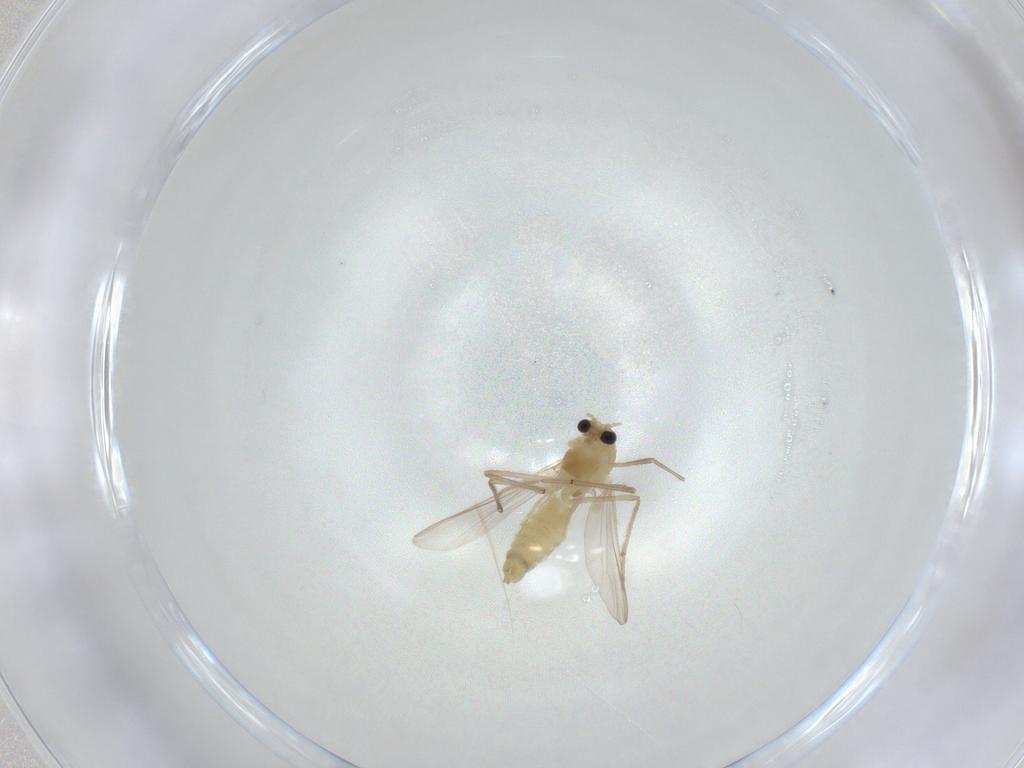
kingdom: Animalia
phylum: Arthropoda
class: Insecta
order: Diptera
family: Chironomidae
